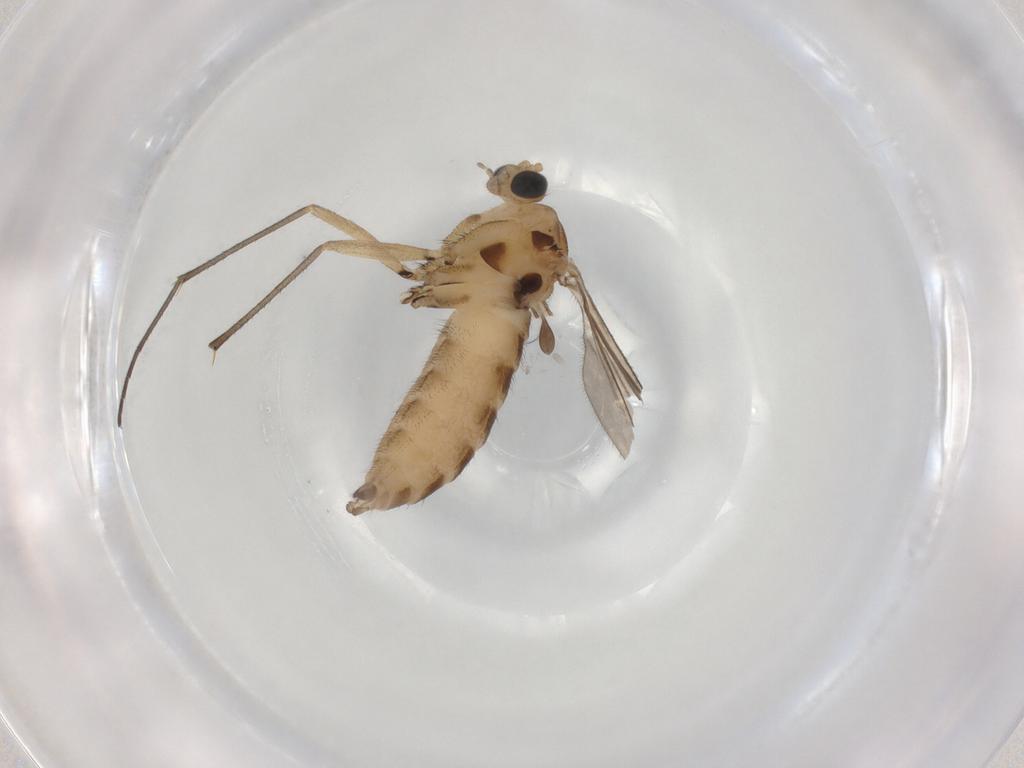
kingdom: Animalia
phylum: Arthropoda
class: Insecta
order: Diptera
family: Sciaridae
